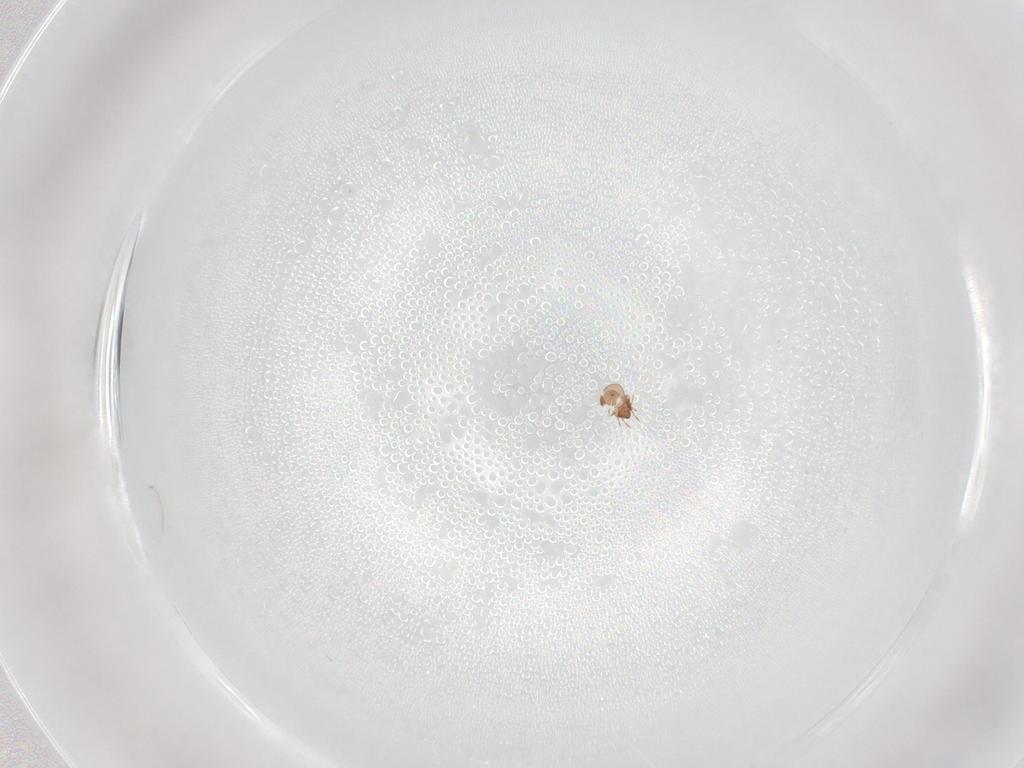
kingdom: Animalia
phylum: Arthropoda
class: Arachnida
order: Sarcoptiformes
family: Astegistidae
